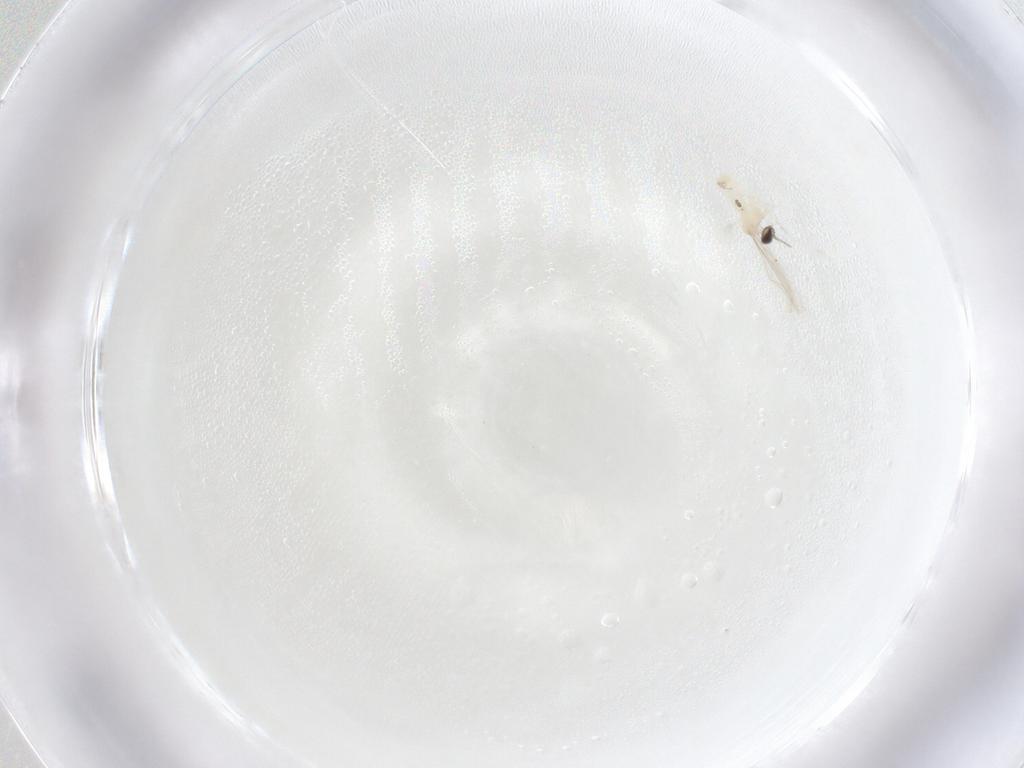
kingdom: Animalia
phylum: Arthropoda
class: Insecta
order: Diptera
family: Cecidomyiidae
